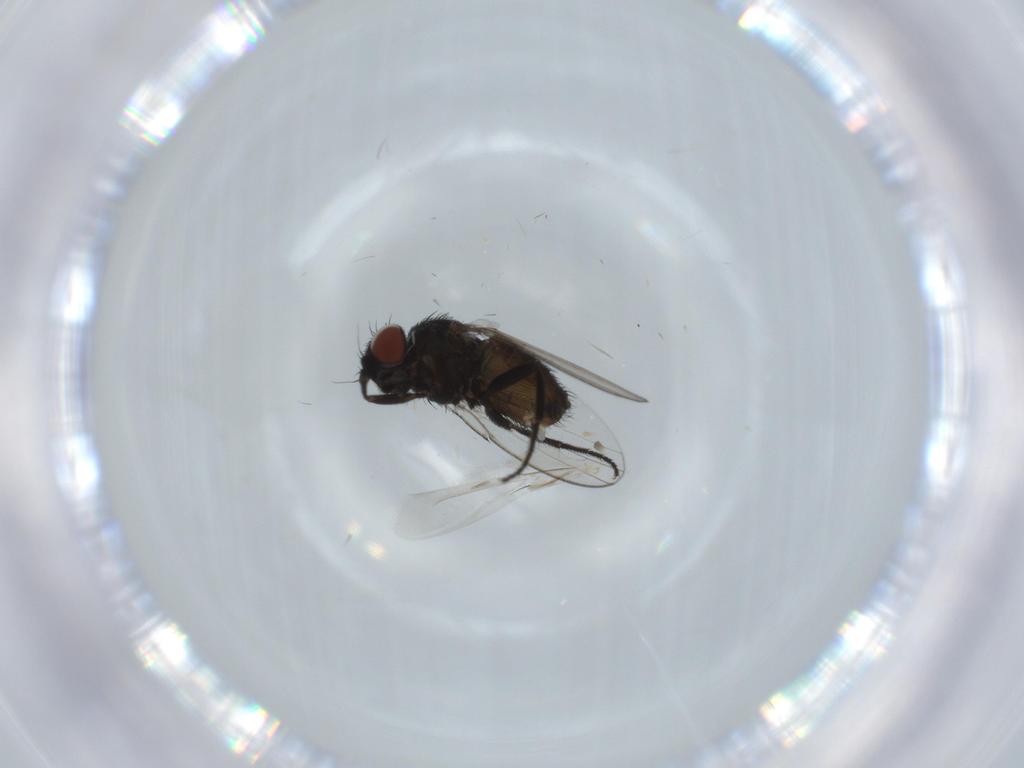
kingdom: Animalia
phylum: Arthropoda
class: Insecta
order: Diptera
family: Milichiidae
